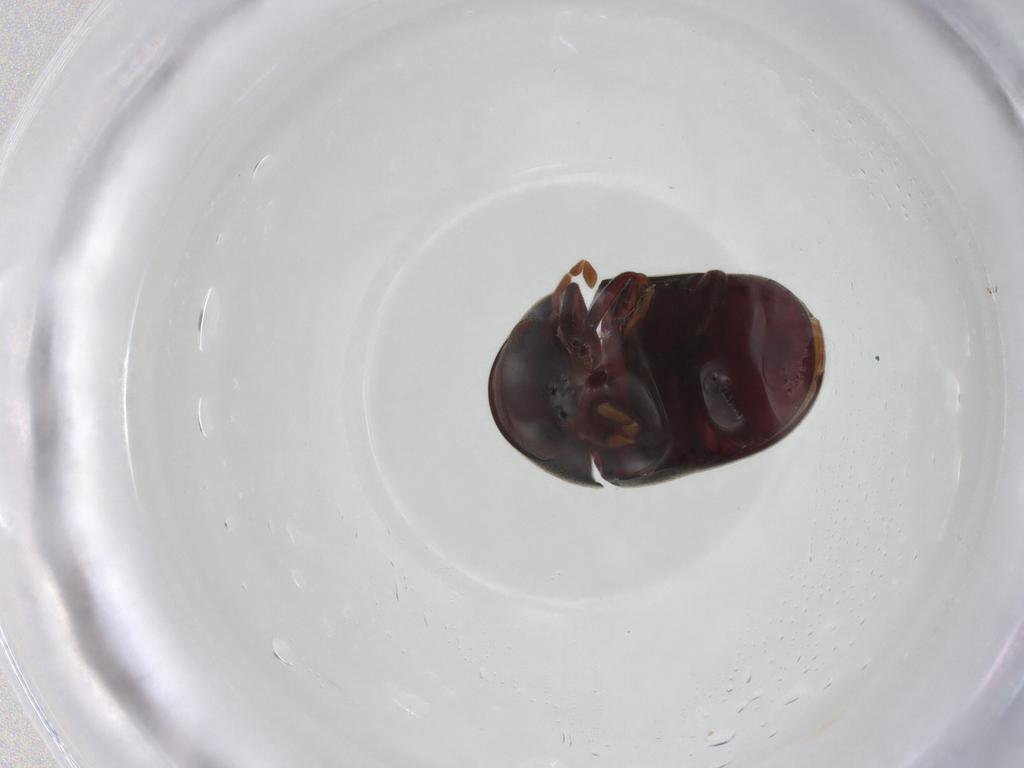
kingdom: Animalia
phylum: Arthropoda
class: Insecta
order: Coleoptera
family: Ptinidae
